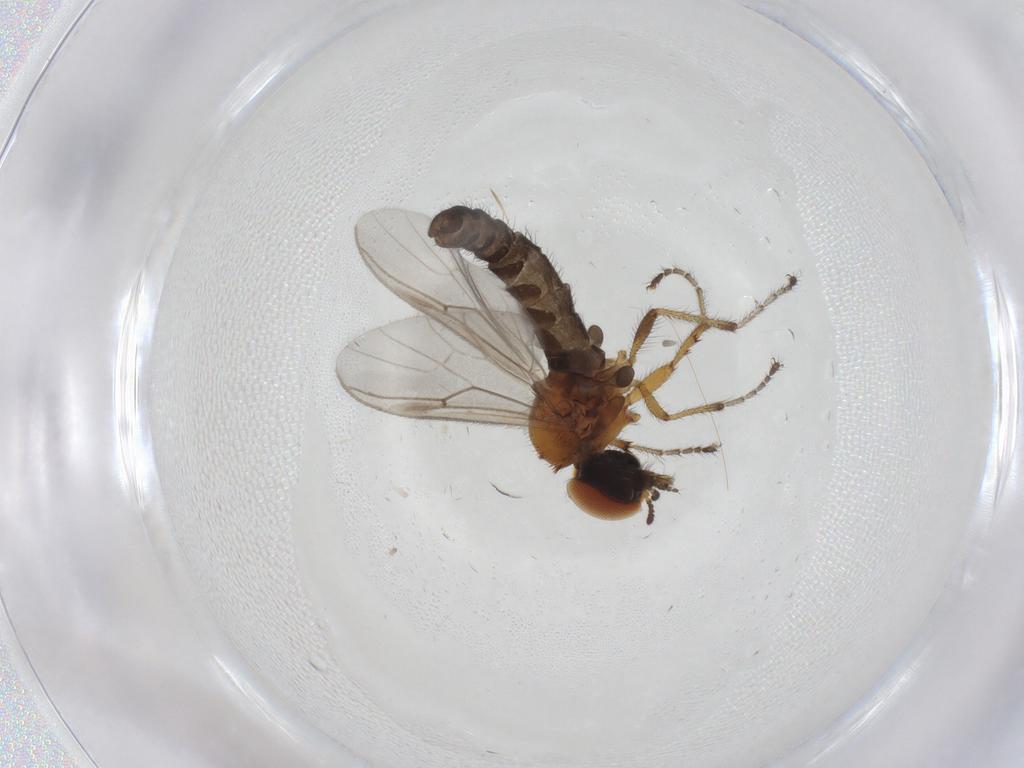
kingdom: Animalia
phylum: Arthropoda
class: Insecta
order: Diptera
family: Bibionidae
